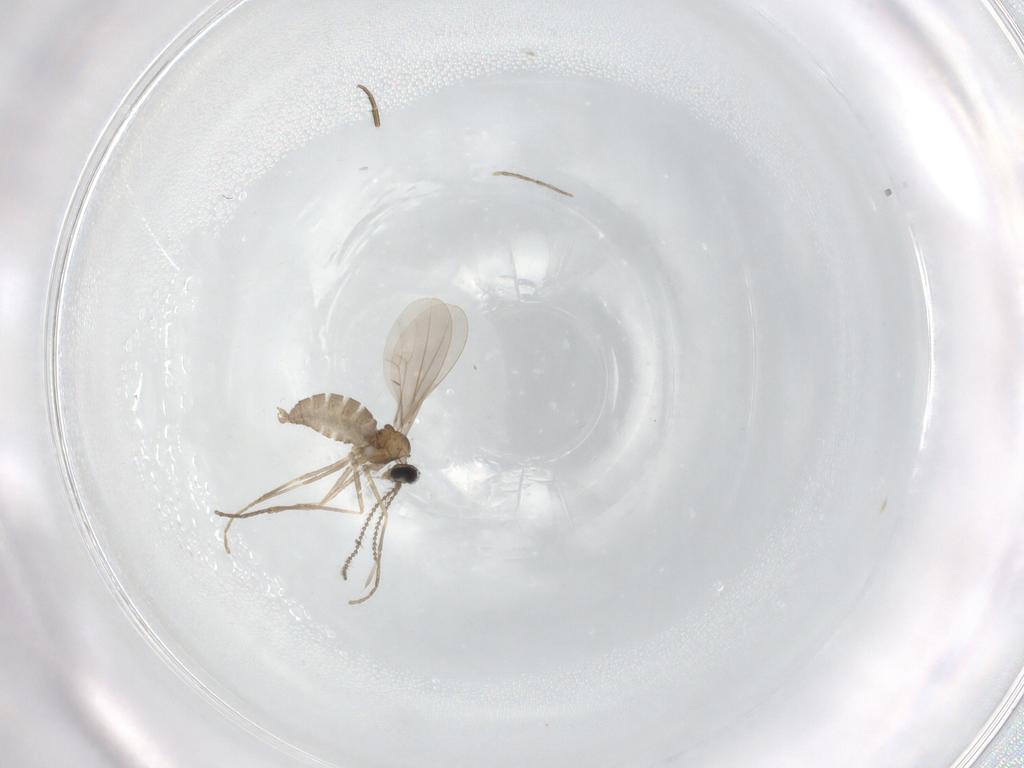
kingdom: Animalia
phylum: Arthropoda
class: Insecta
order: Diptera
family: Cecidomyiidae
